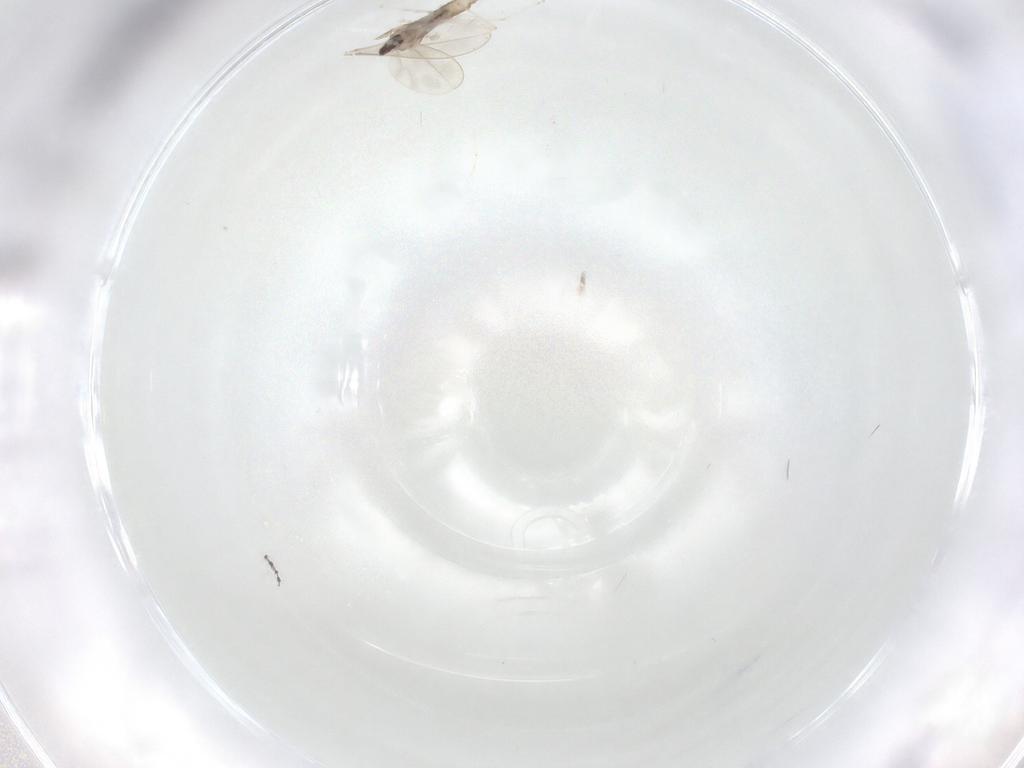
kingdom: Animalia
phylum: Arthropoda
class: Insecta
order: Diptera
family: Cecidomyiidae
